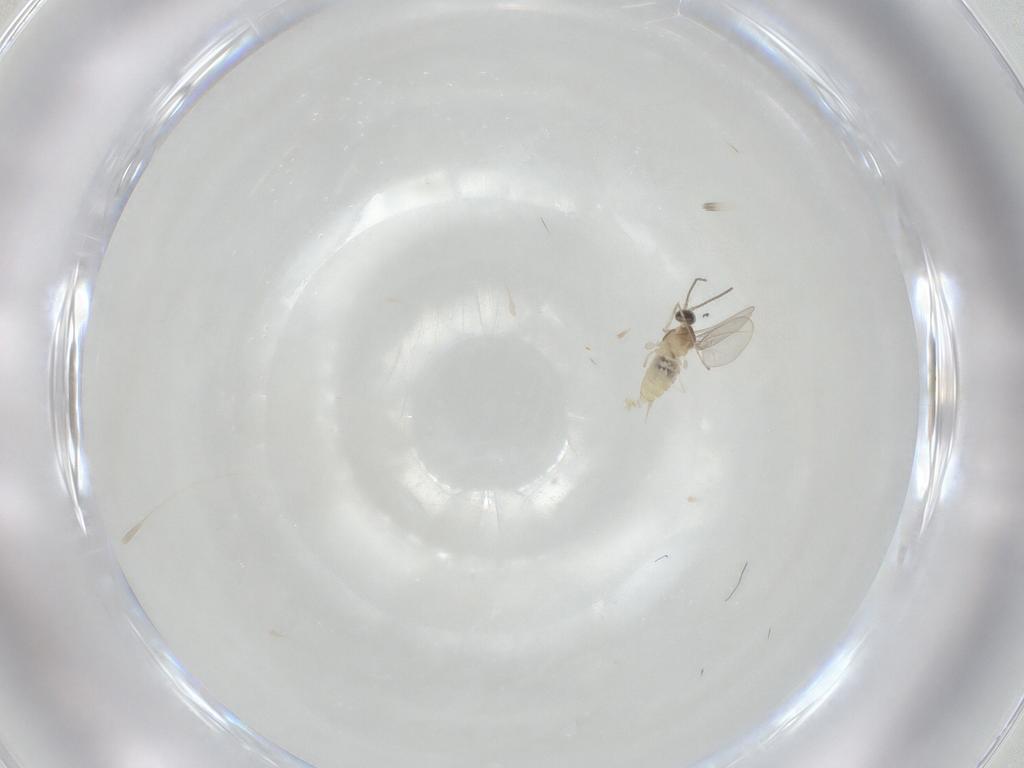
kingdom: Animalia
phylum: Arthropoda
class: Insecta
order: Diptera
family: Cecidomyiidae
